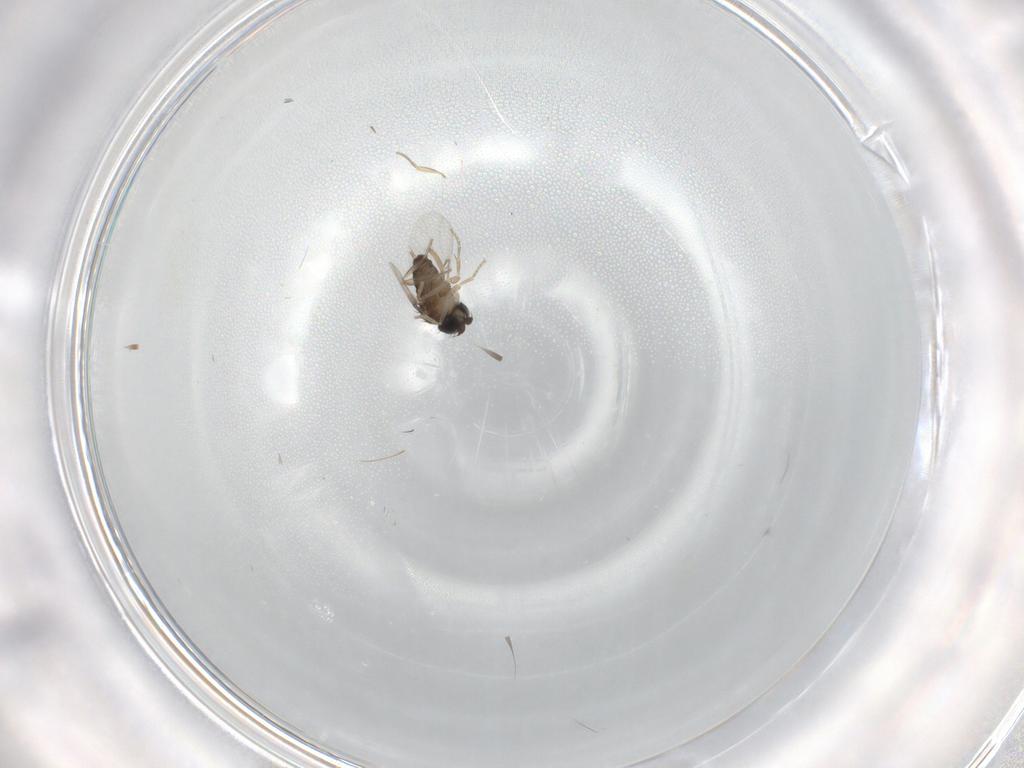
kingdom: Animalia
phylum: Arthropoda
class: Insecta
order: Diptera
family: Phoridae
